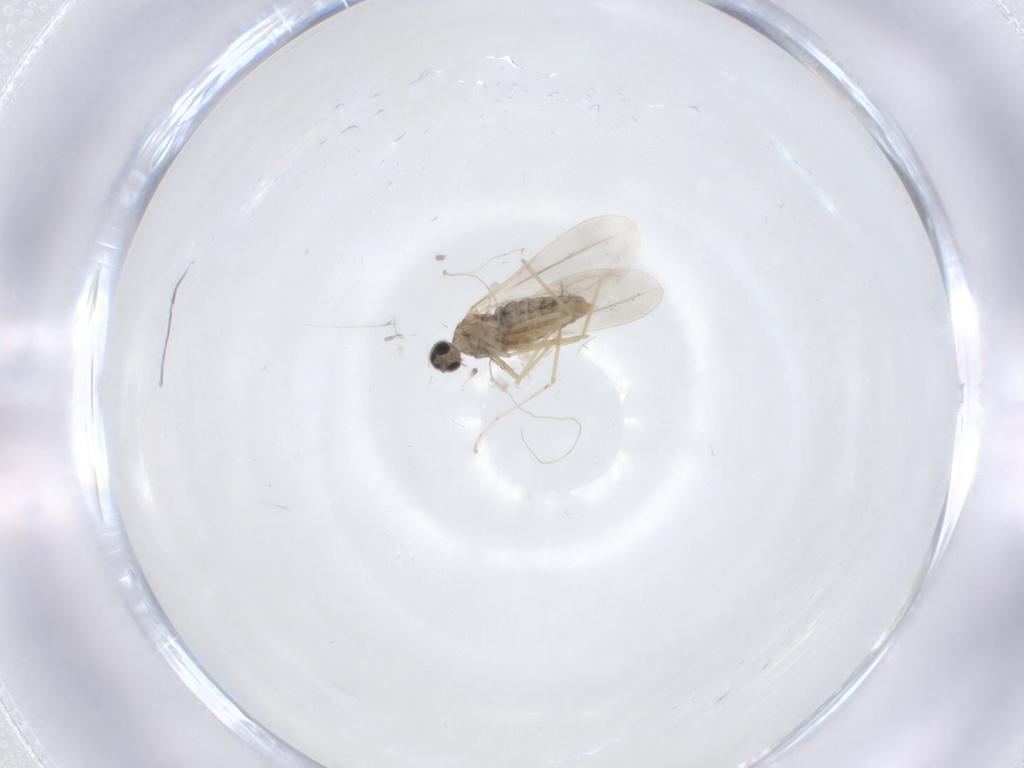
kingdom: Animalia
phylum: Arthropoda
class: Insecta
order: Diptera
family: Cecidomyiidae
